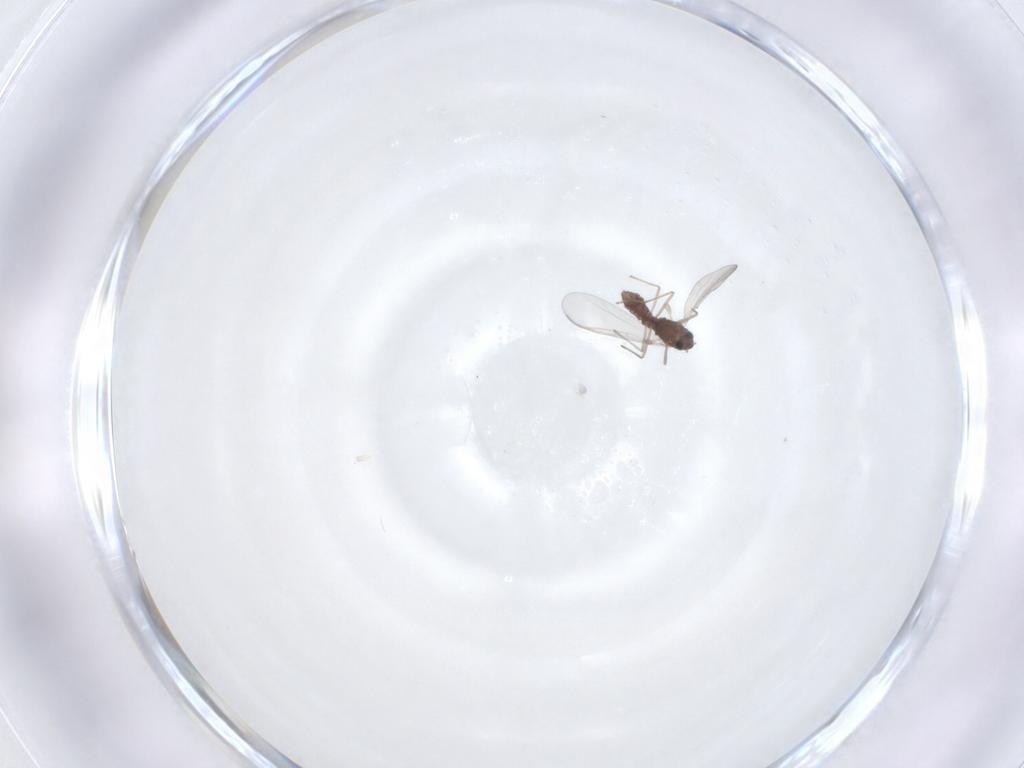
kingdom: Animalia
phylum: Arthropoda
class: Insecta
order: Diptera
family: Chironomidae
